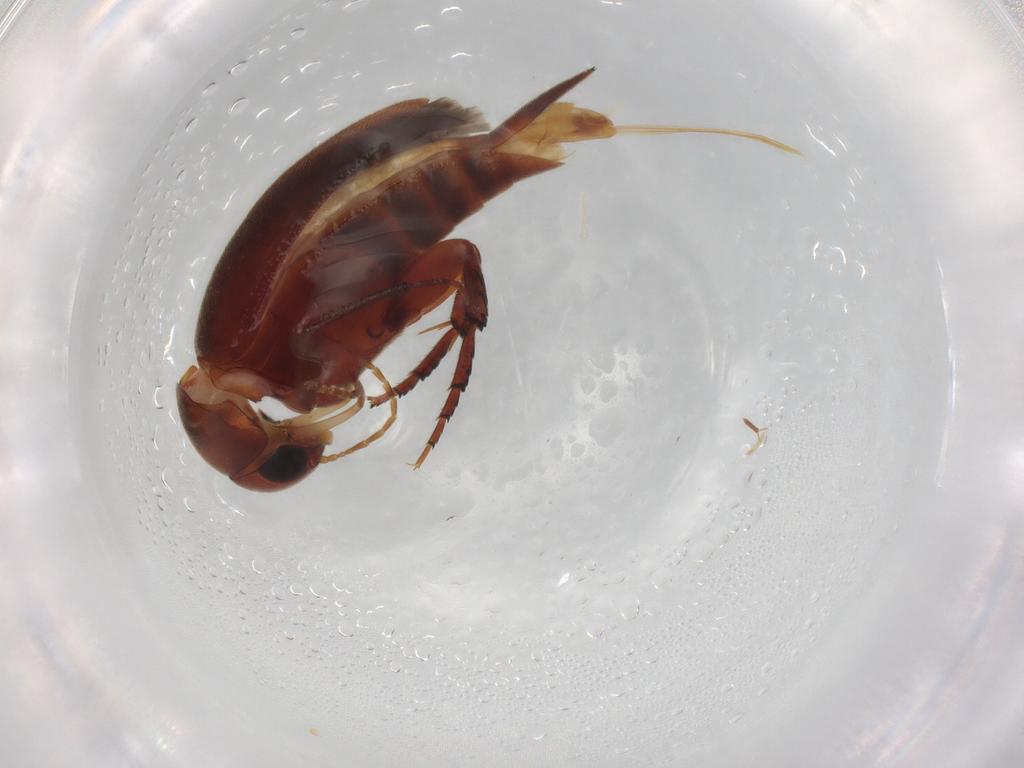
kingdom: Animalia
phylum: Arthropoda
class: Insecta
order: Coleoptera
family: Mordellidae
